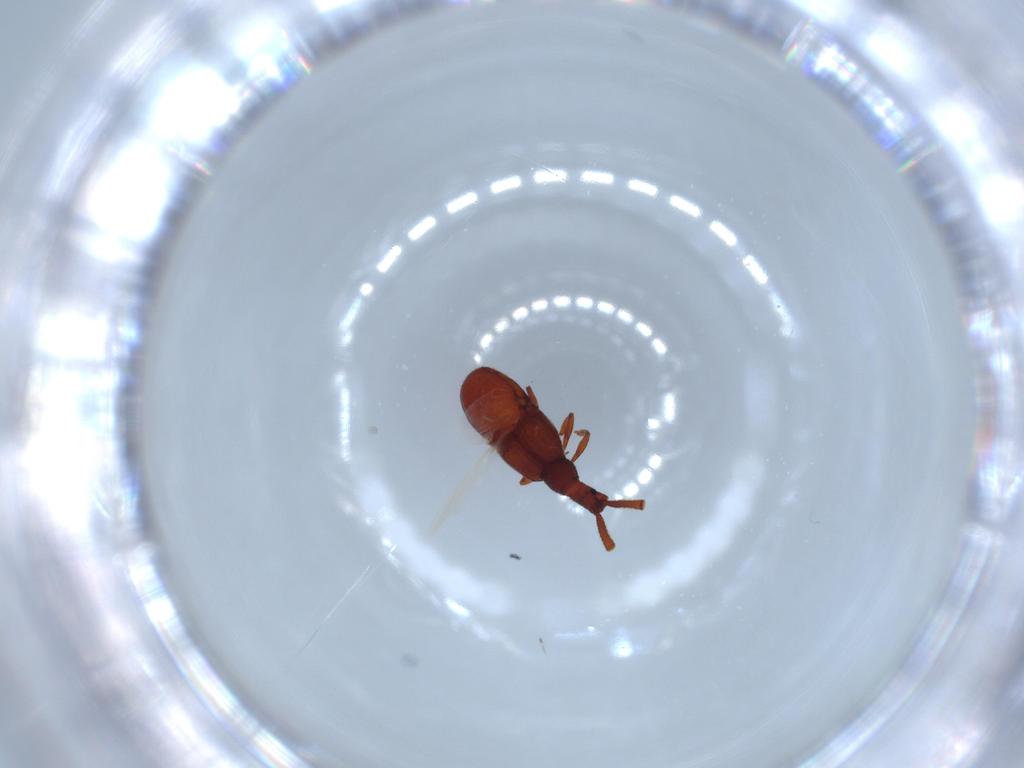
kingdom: Animalia
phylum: Arthropoda
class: Insecta
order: Coleoptera
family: Staphylinidae
